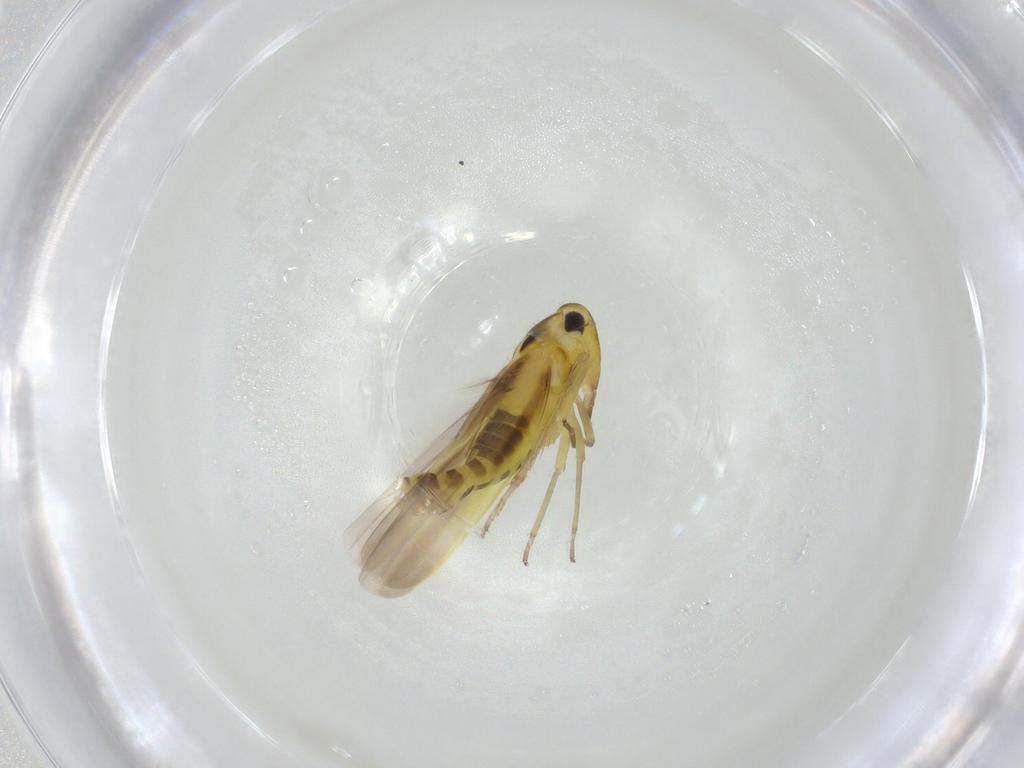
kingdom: Animalia
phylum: Arthropoda
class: Insecta
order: Hemiptera
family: Cicadellidae
